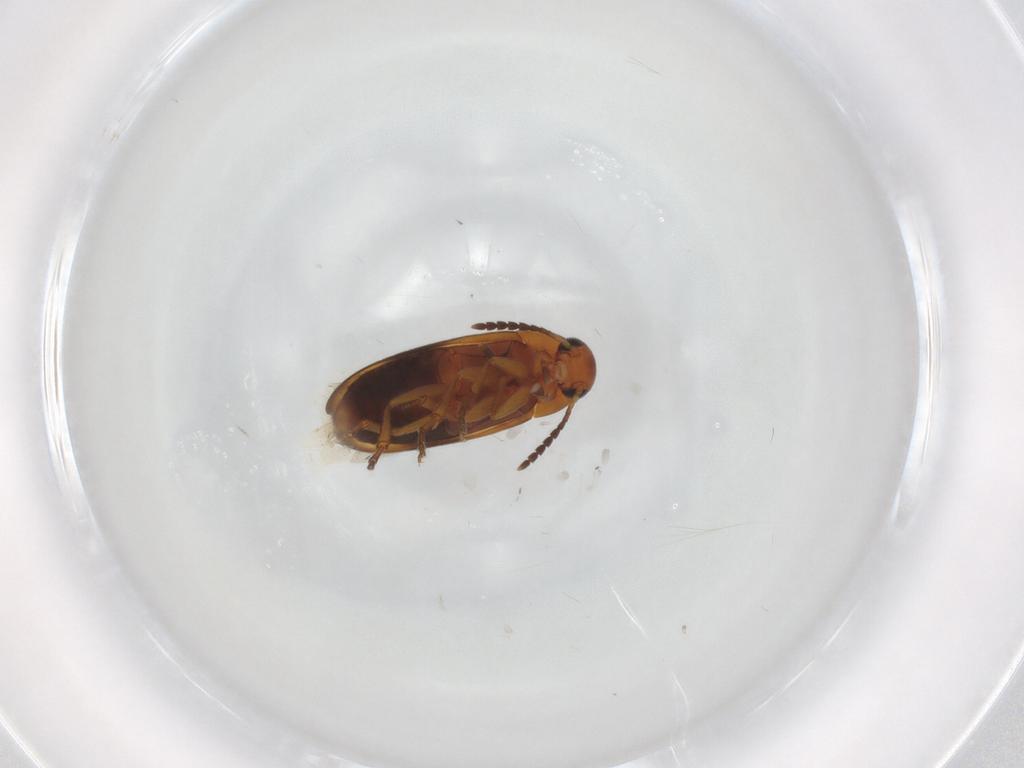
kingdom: Animalia
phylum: Arthropoda
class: Insecta
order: Coleoptera
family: Scraptiidae
